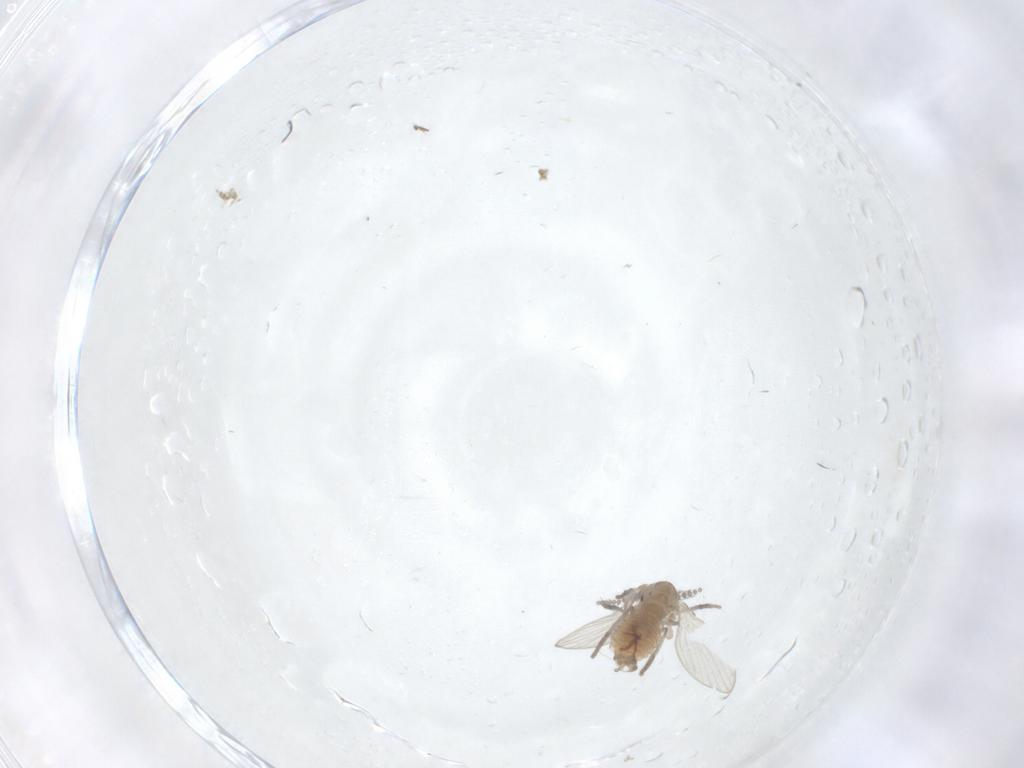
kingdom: Animalia
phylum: Arthropoda
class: Insecta
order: Diptera
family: Psychodidae
